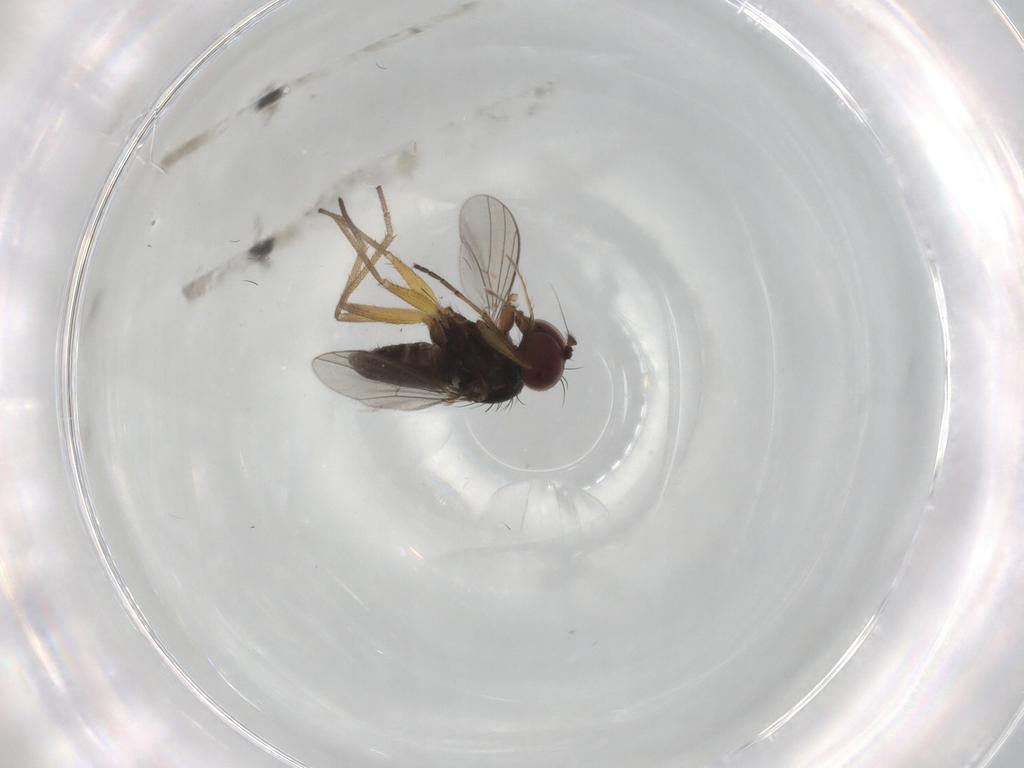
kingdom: Animalia
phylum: Arthropoda
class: Insecta
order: Diptera
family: Dolichopodidae
